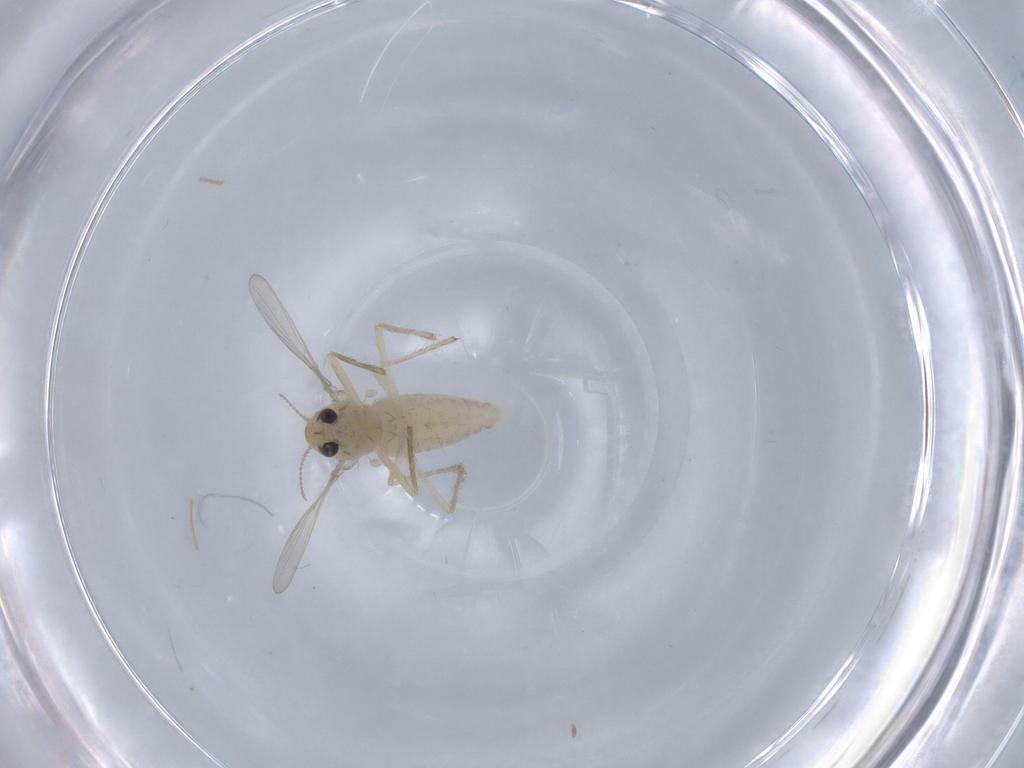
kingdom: Animalia
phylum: Arthropoda
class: Insecta
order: Diptera
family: Chironomidae
